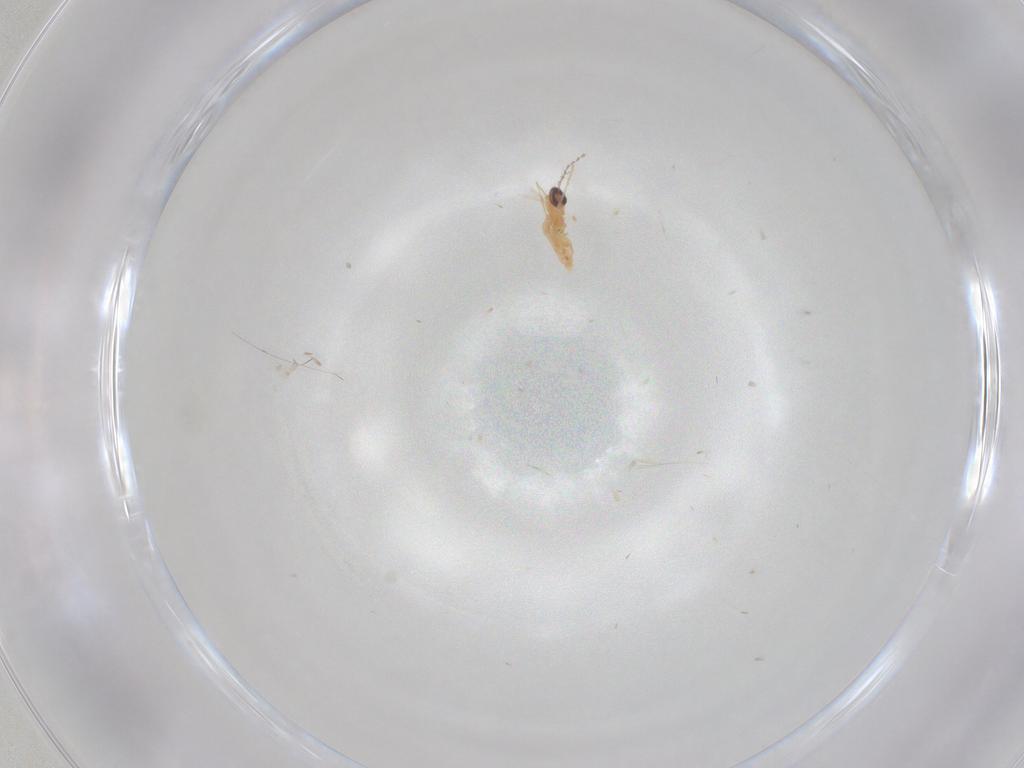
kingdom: Animalia
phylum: Arthropoda
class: Insecta
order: Diptera
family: Cecidomyiidae
